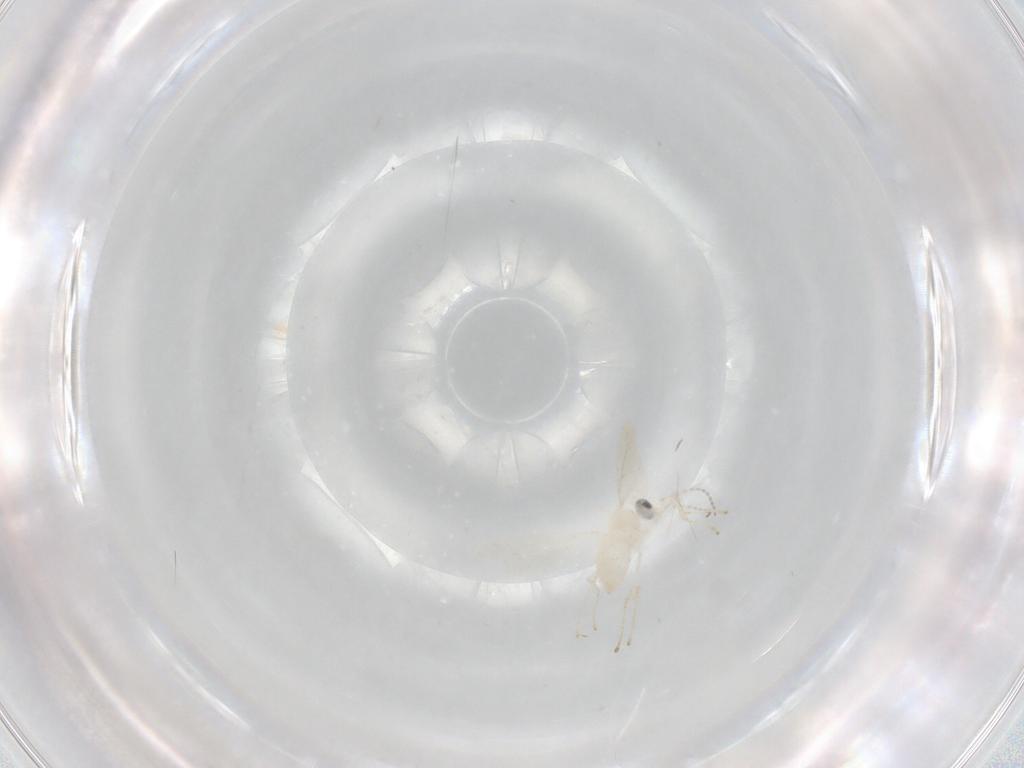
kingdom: Animalia
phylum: Arthropoda
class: Insecta
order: Diptera
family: Cecidomyiidae
